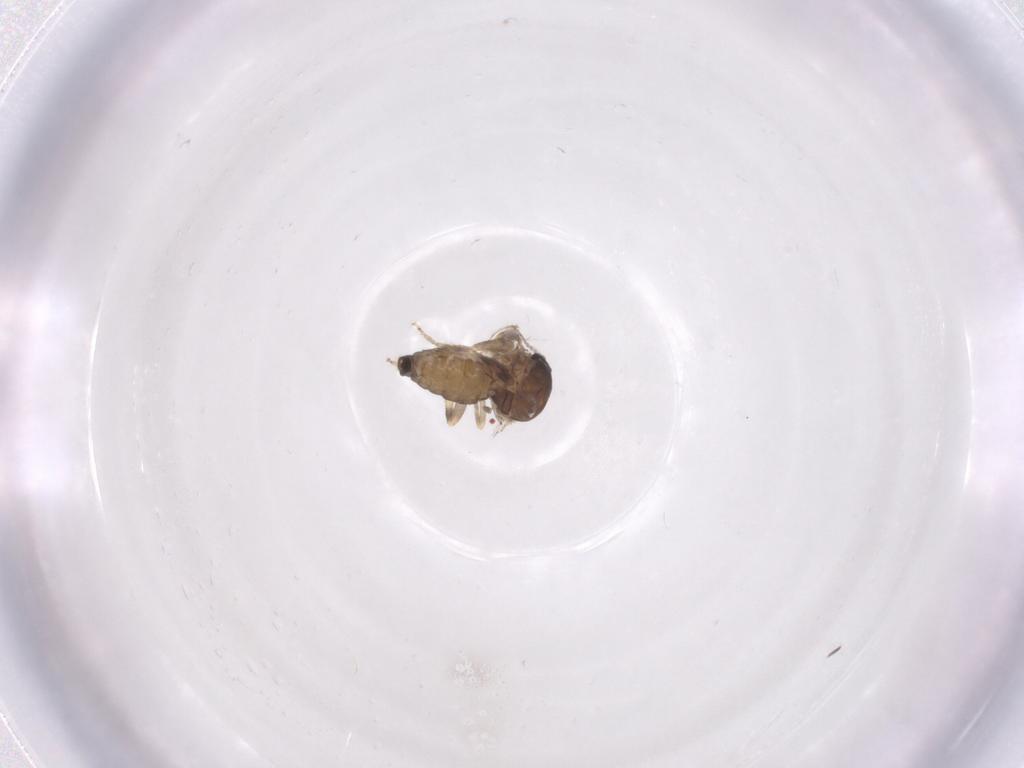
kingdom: Animalia
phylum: Arthropoda
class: Insecta
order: Diptera
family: Ceratopogonidae
